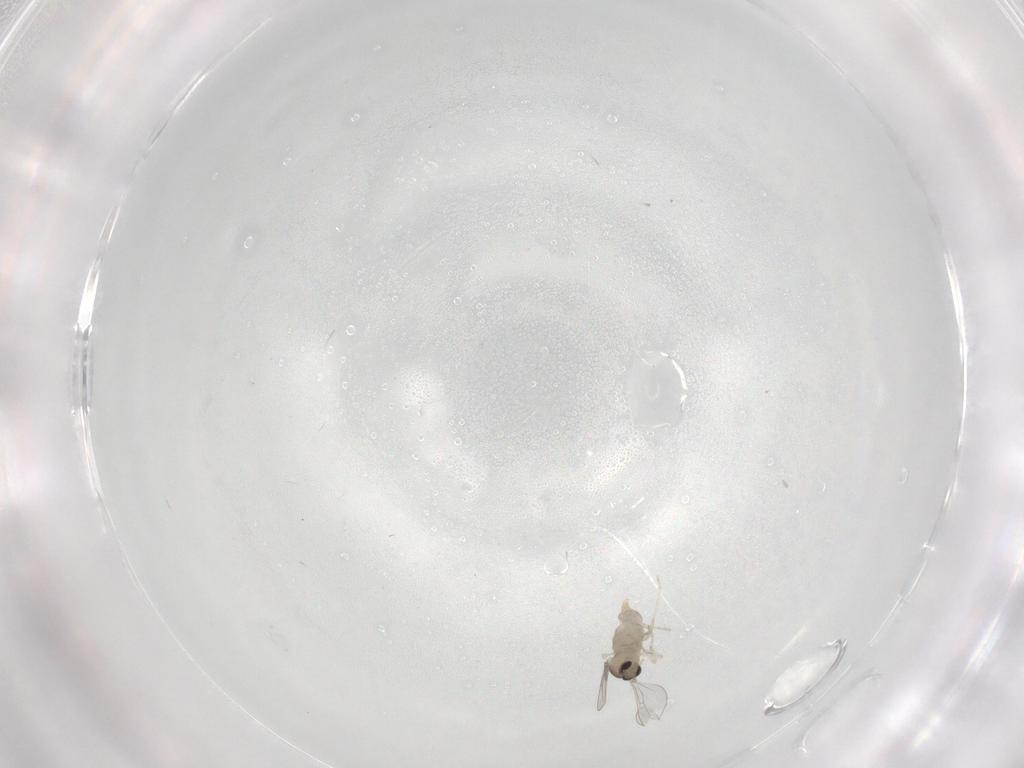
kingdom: Animalia
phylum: Arthropoda
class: Insecta
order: Diptera
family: Cecidomyiidae
